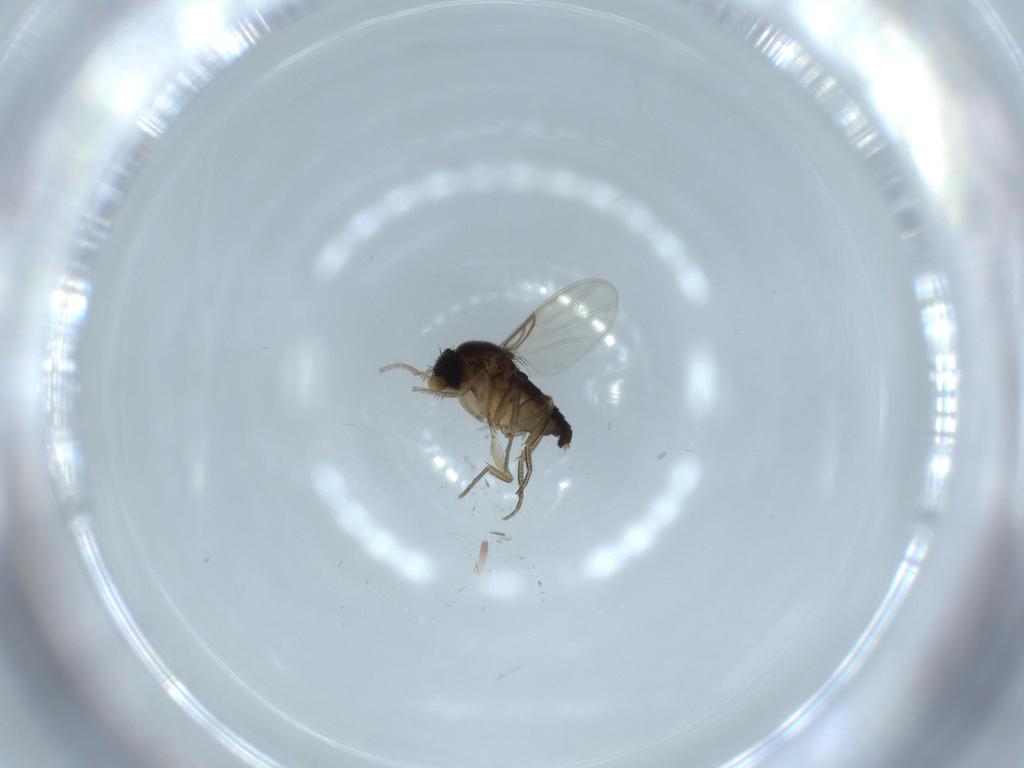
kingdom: Animalia
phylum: Arthropoda
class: Insecta
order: Diptera
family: Phoridae
